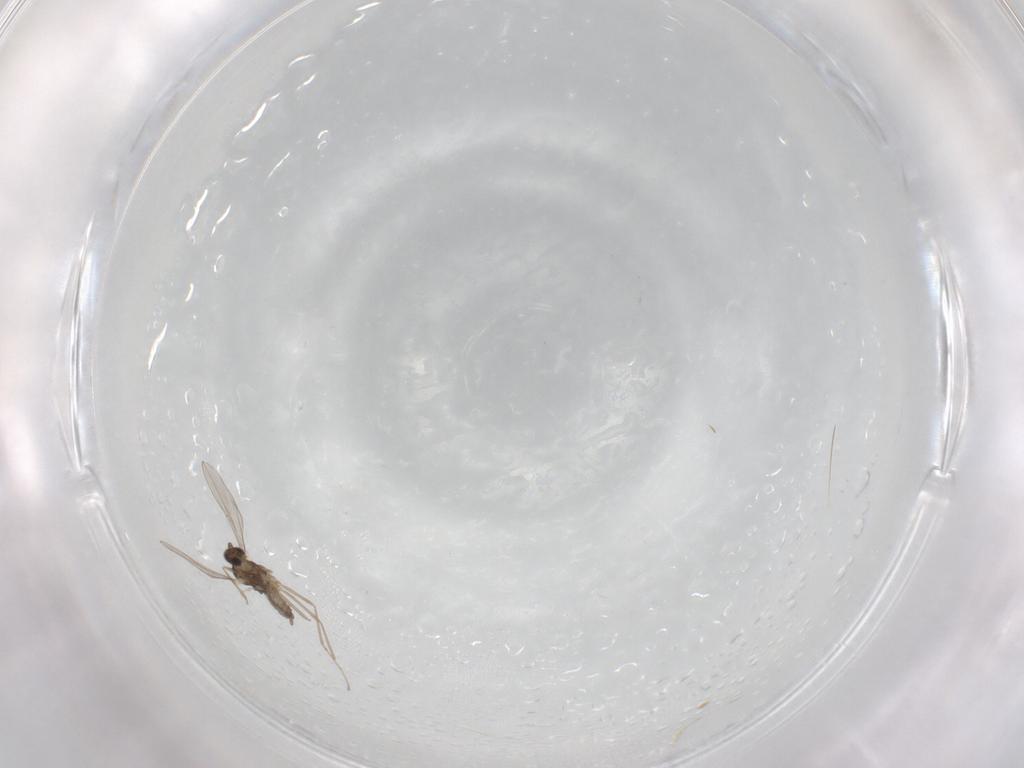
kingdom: Animalia
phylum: Arthropoda
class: Insecta
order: Diptera
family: Cecidomyiidae
